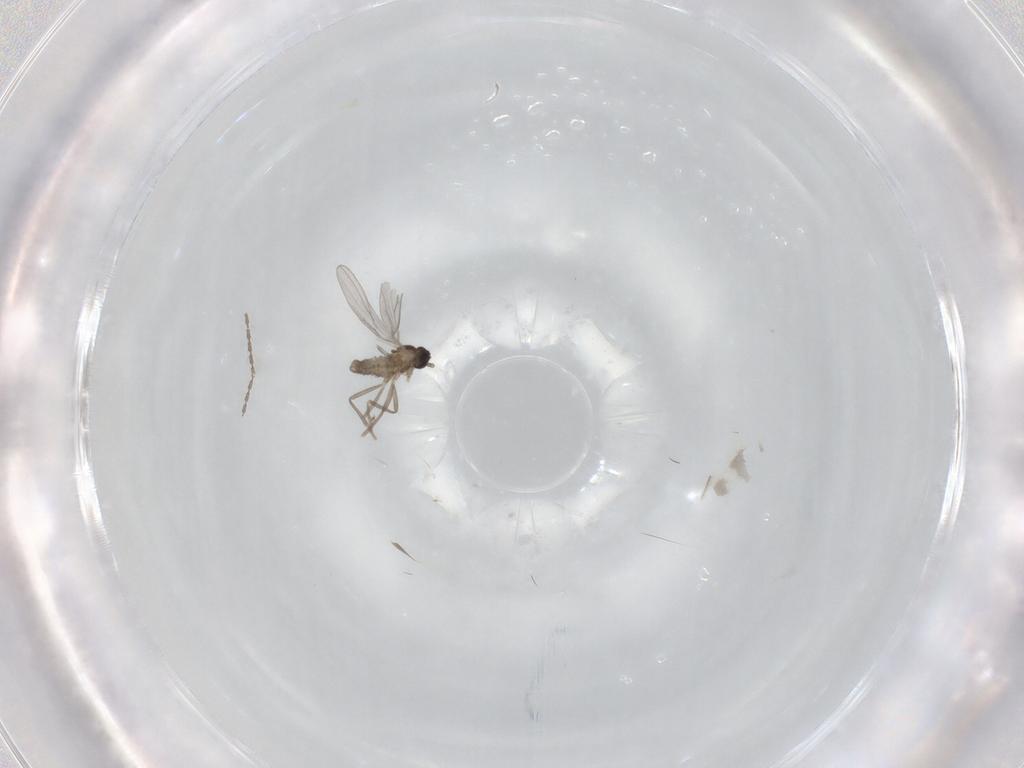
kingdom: Animalia
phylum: Arthropoda
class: Insecta
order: Diptera
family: Cecidomyiidae
